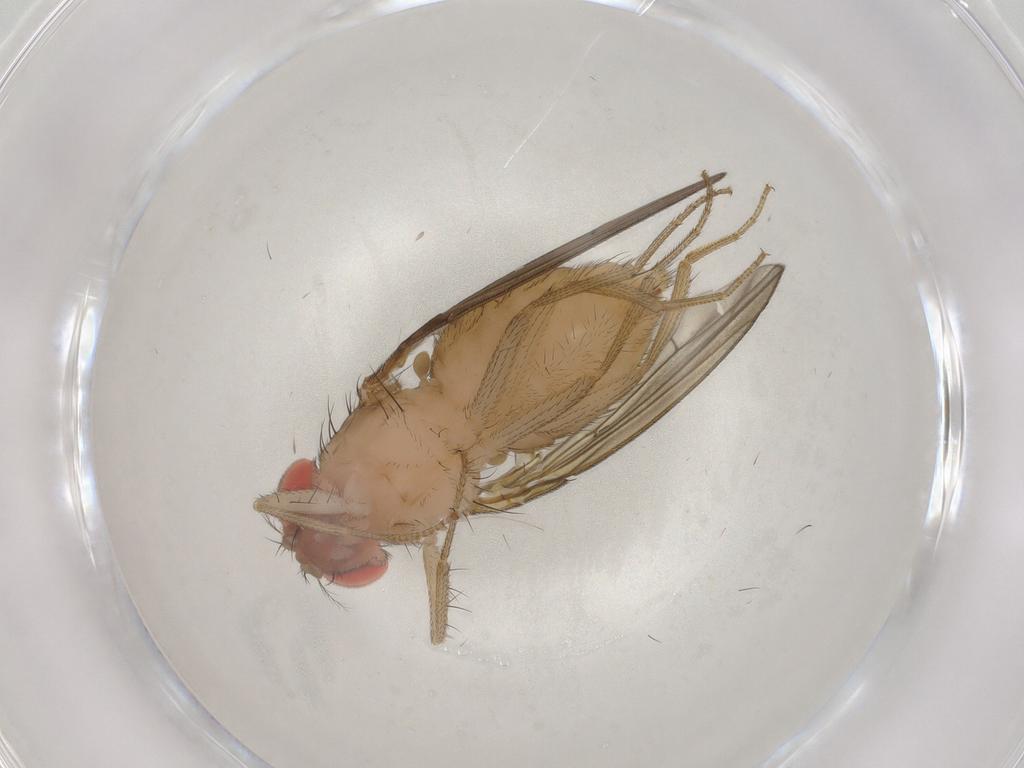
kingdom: Animalia
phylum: Arthropoda
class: Insecta
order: Diptera
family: Drosophilidae
